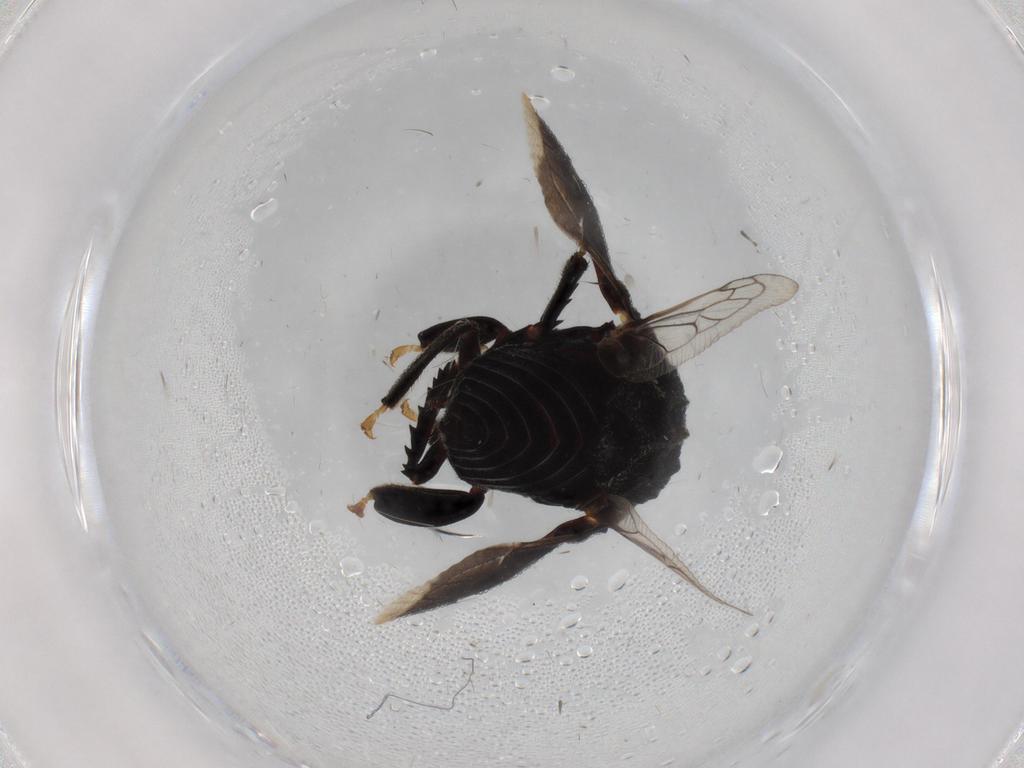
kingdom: Animalia
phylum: Arthropoda
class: Insecta
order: Hemiptera
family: Membracidae
